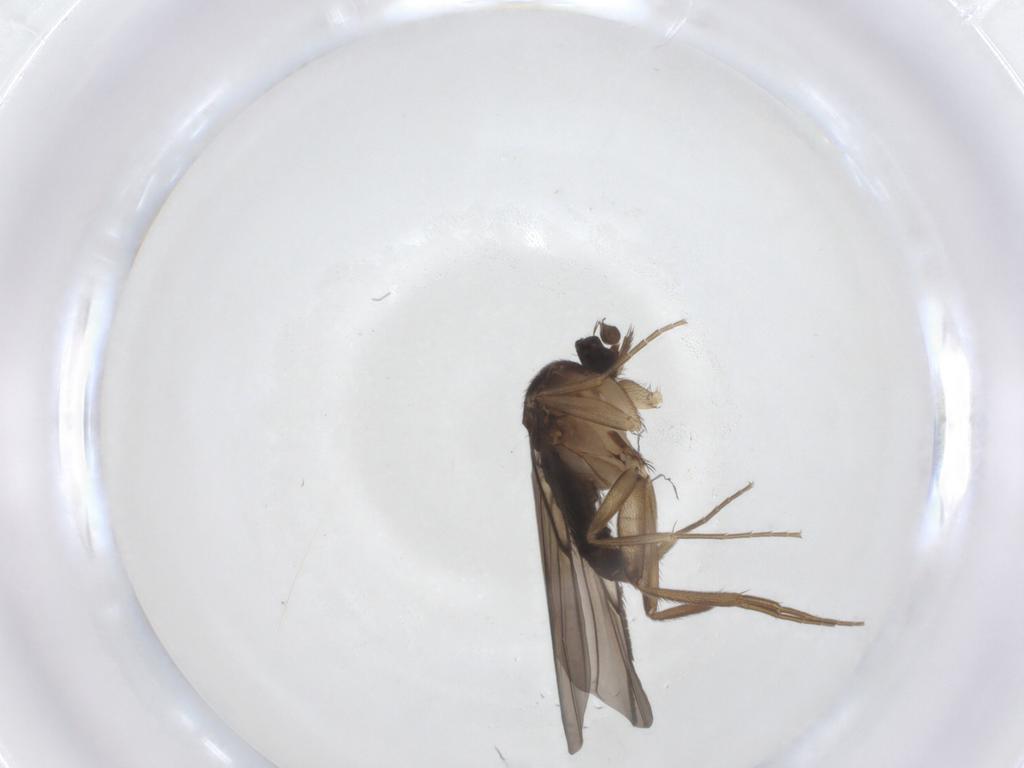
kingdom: Animalia
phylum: Arthropoda
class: Insecta
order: Diptera
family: Phoridae
